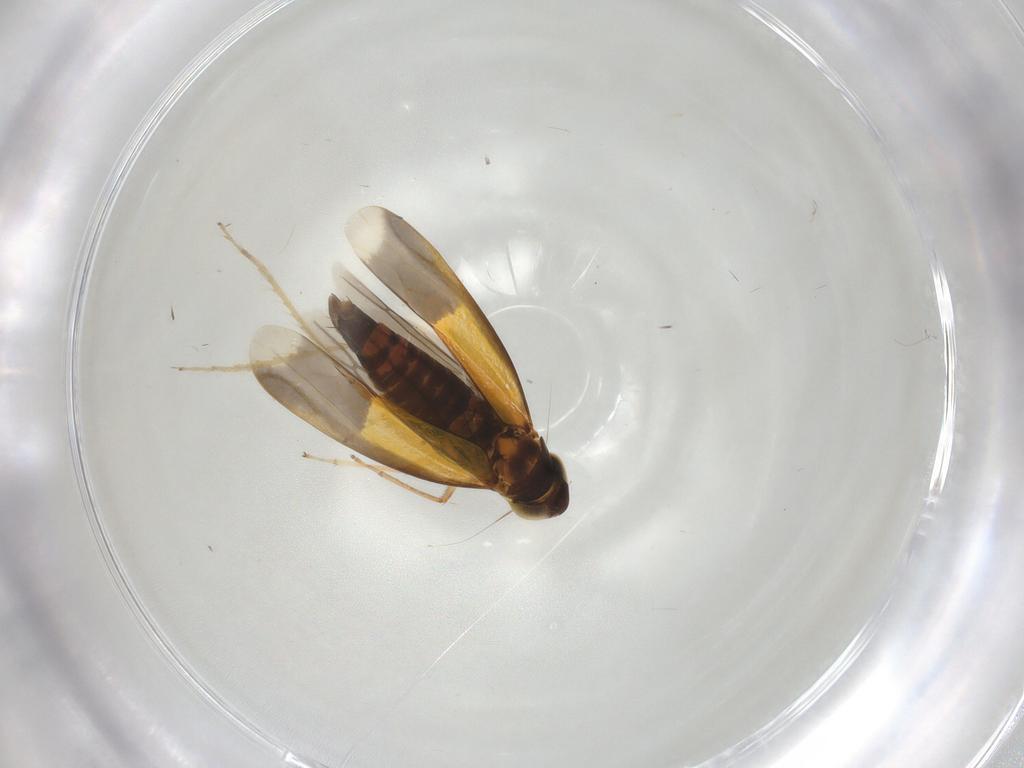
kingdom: Animalia
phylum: Arthropoda
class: Insecta
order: Hemiptera
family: Cicadellidae
